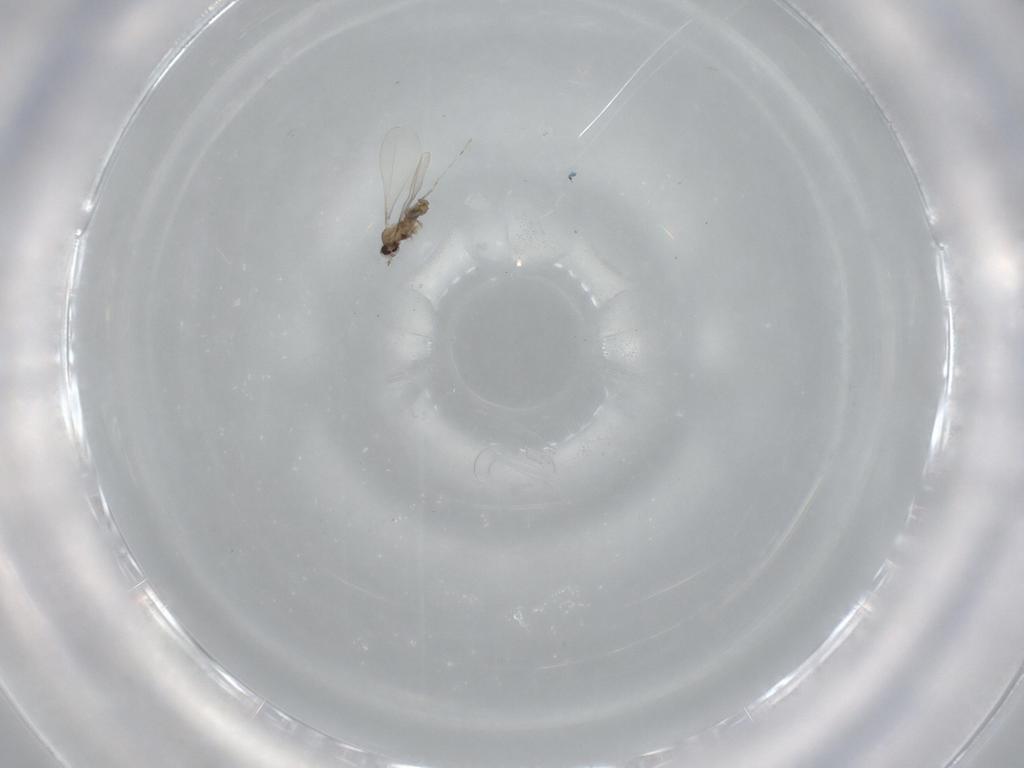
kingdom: Animalia
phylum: Arthropoda
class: Insecta
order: Diptera
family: Cecidomyiidae
